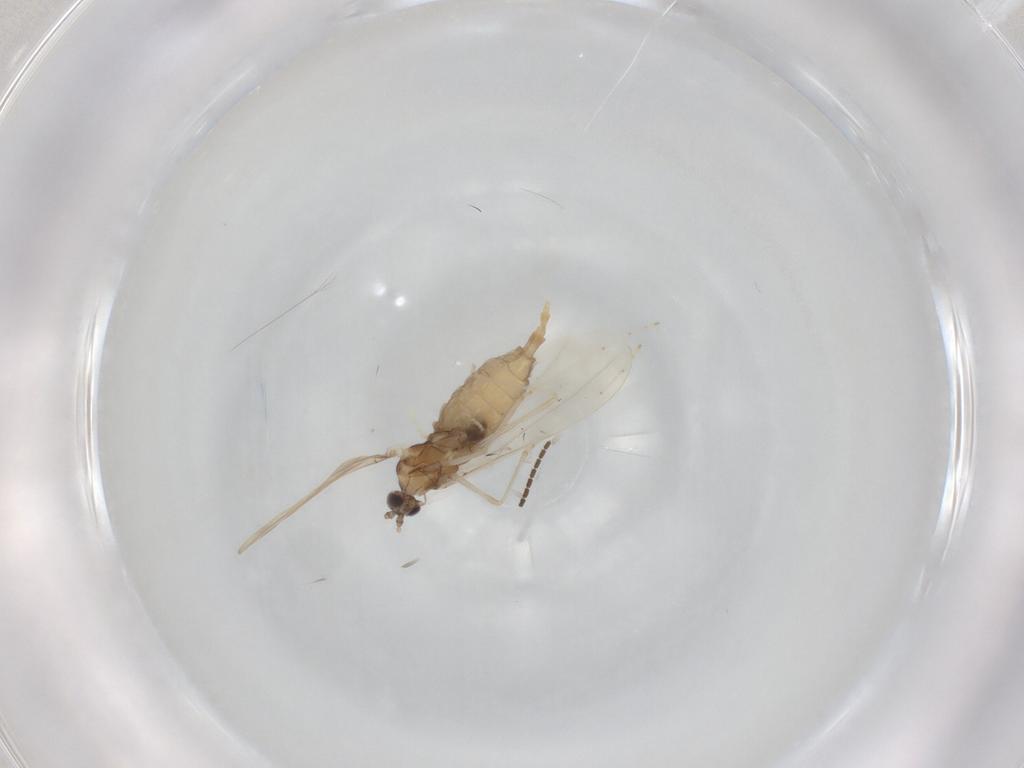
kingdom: Animalia
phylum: Arthropoda
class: Insecta
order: Diptera
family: Cecidomyiidae
